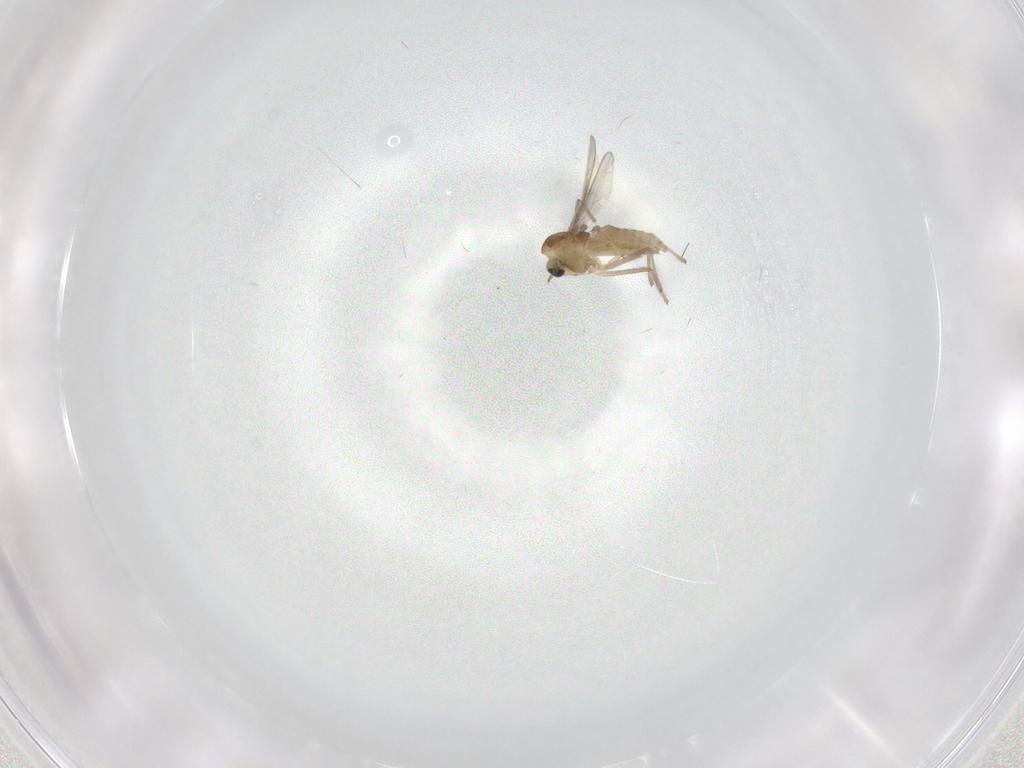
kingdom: Animalia
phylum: Arthropoda
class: Insecta
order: Diptera
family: Chironomidae
